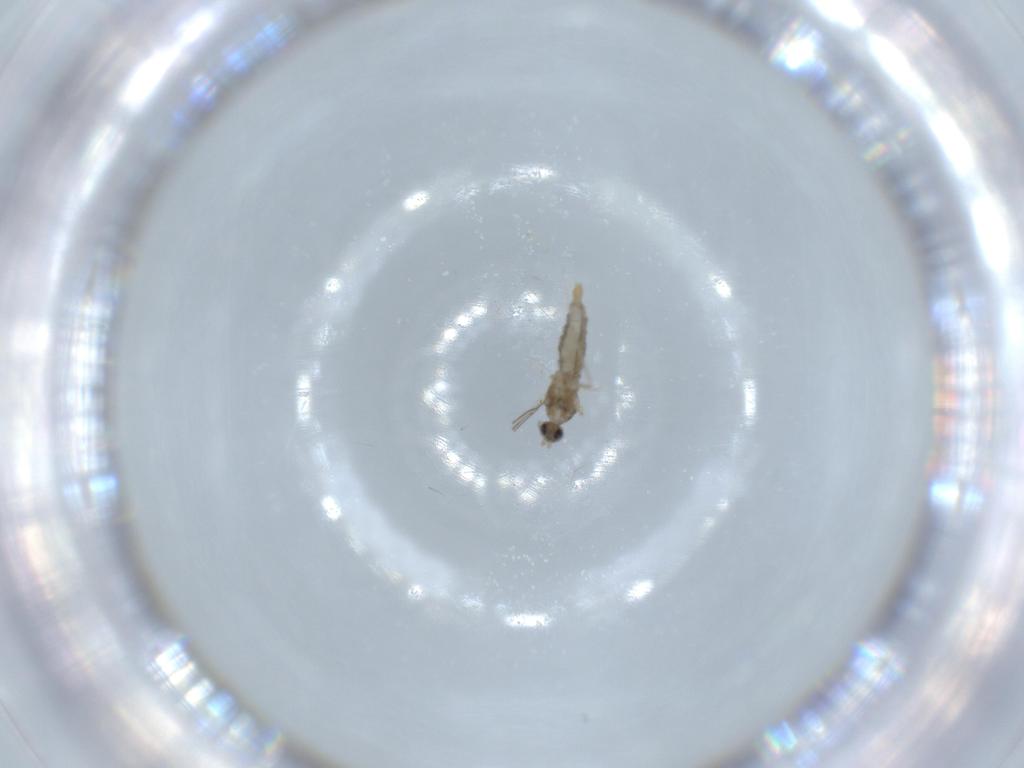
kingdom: Animalia
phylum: Arthropoda
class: Insecta
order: Diptera
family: Cecidomyiidae
